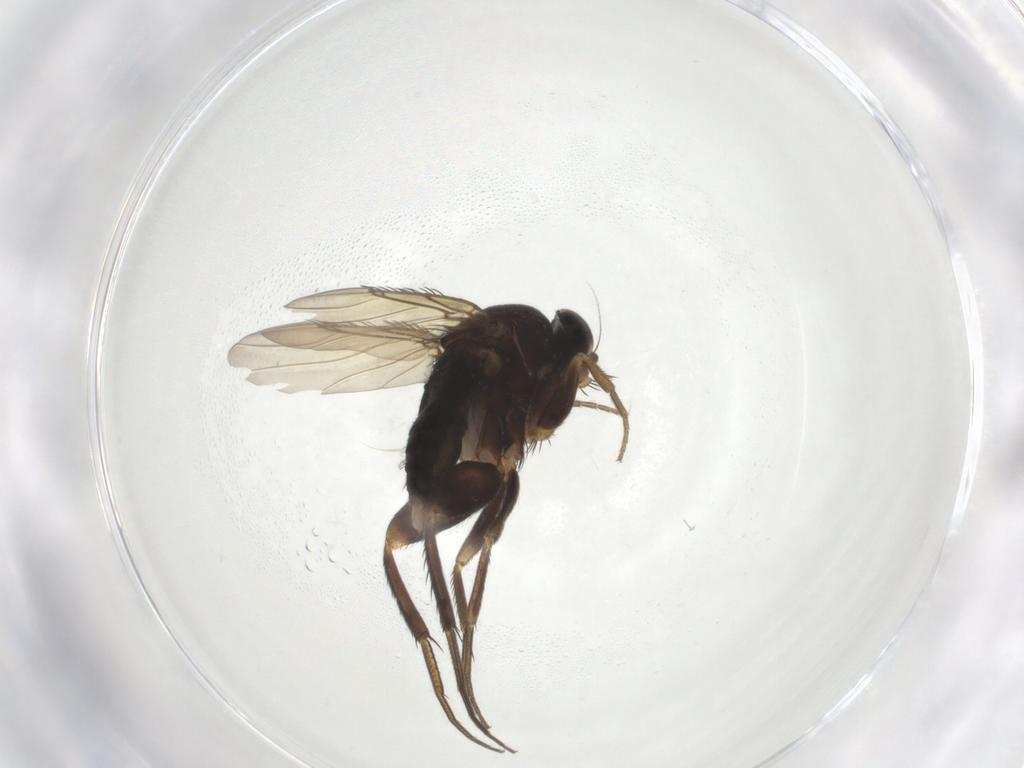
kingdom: Animalia
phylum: Arthropoda
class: Insecta
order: Diptera
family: Phoridae
